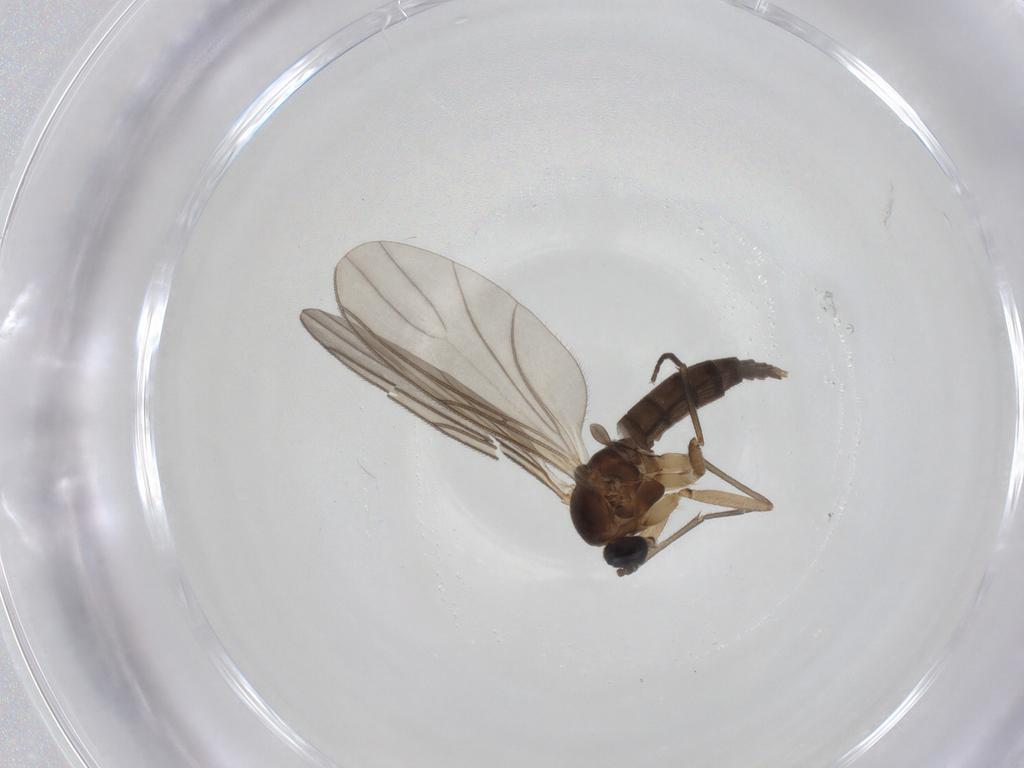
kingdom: Animalia
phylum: Arthropoda
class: Insecta
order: Diptera
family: Sciaridae
